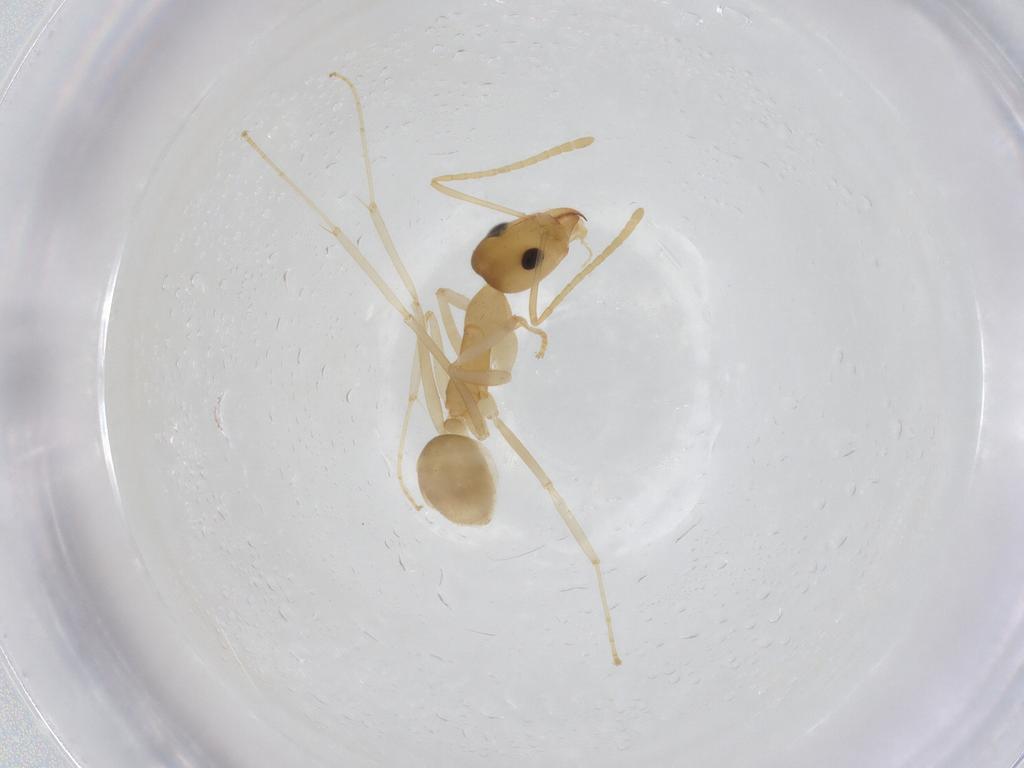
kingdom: Animalia
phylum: Arthropoda
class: Insecta
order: Hymenoptera
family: Formicidae
